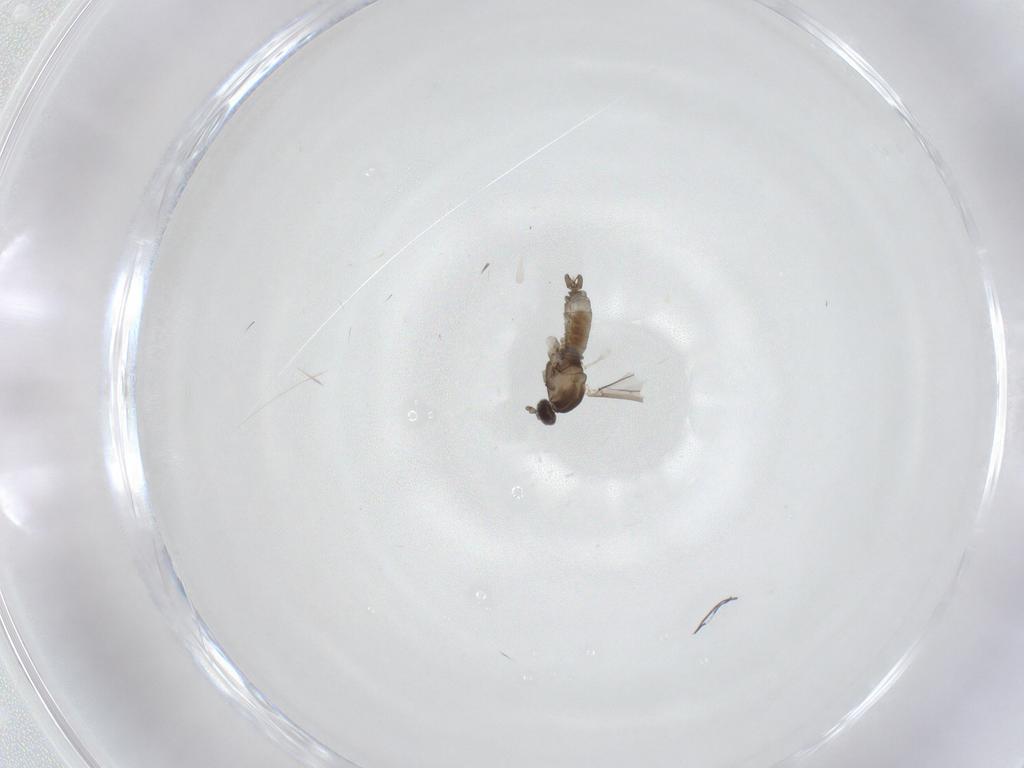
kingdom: Animalia
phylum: Arthropoda
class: Insecta
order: Diptera
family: Cecidomyiidae
